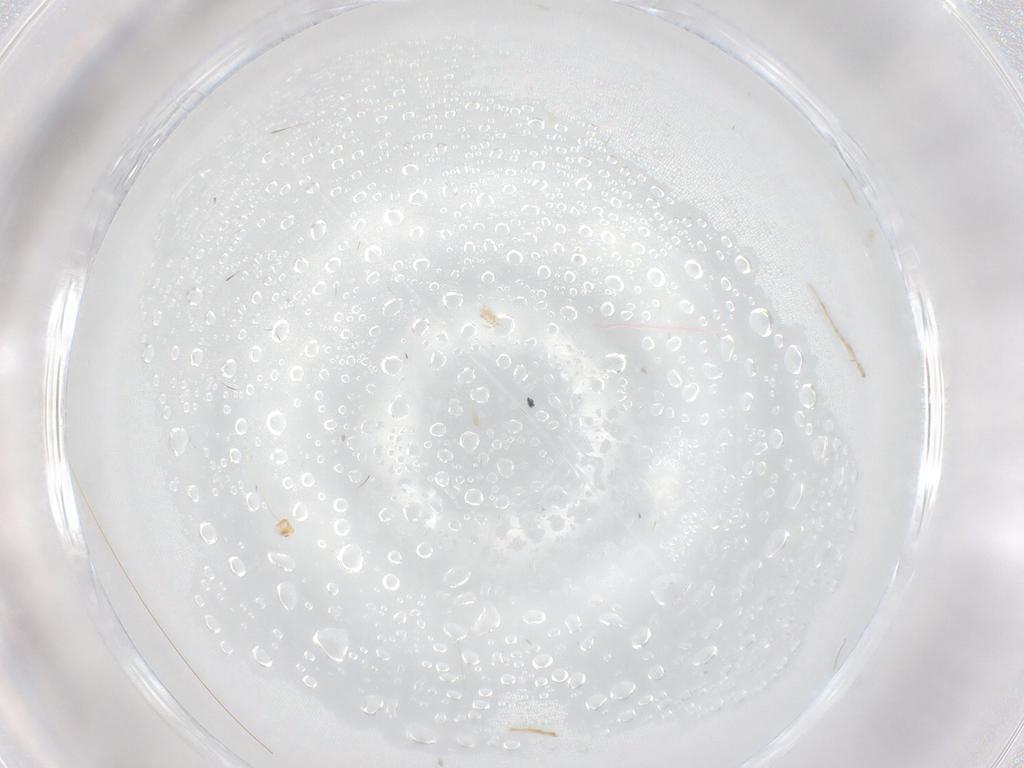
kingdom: Animalia
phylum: Arthropoda
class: Insecta
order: Diptera
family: Ceratopogonidae
